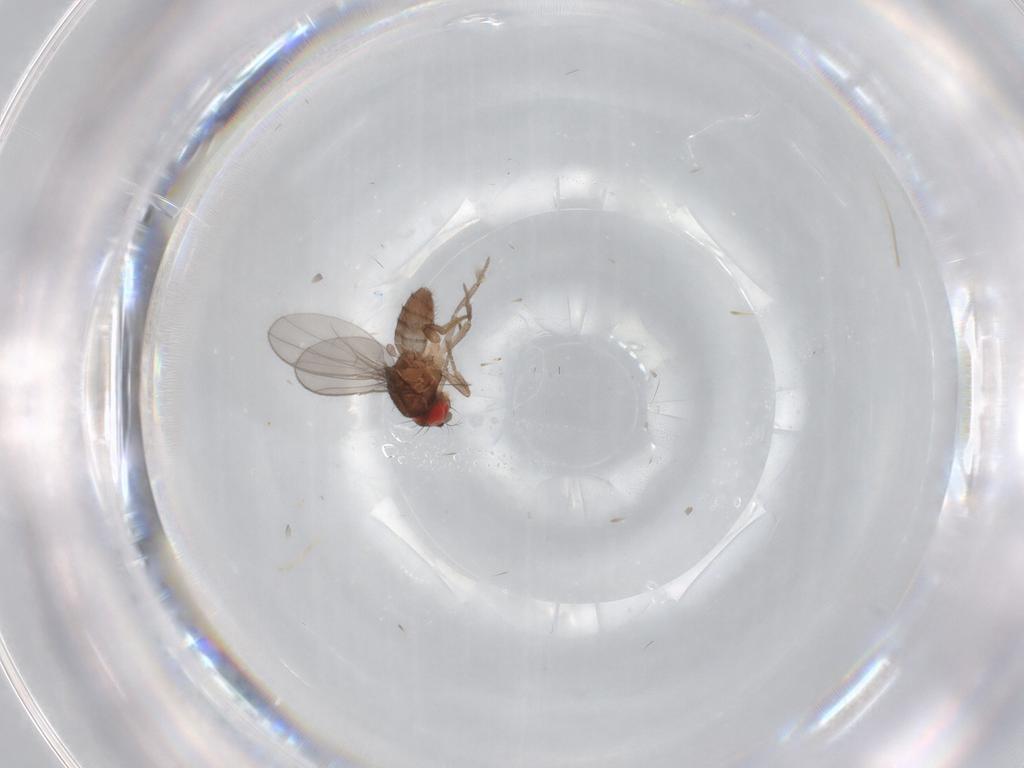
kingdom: Animalia
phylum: Arthropoda
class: Insecta
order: Diptera
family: Drosophilidae
